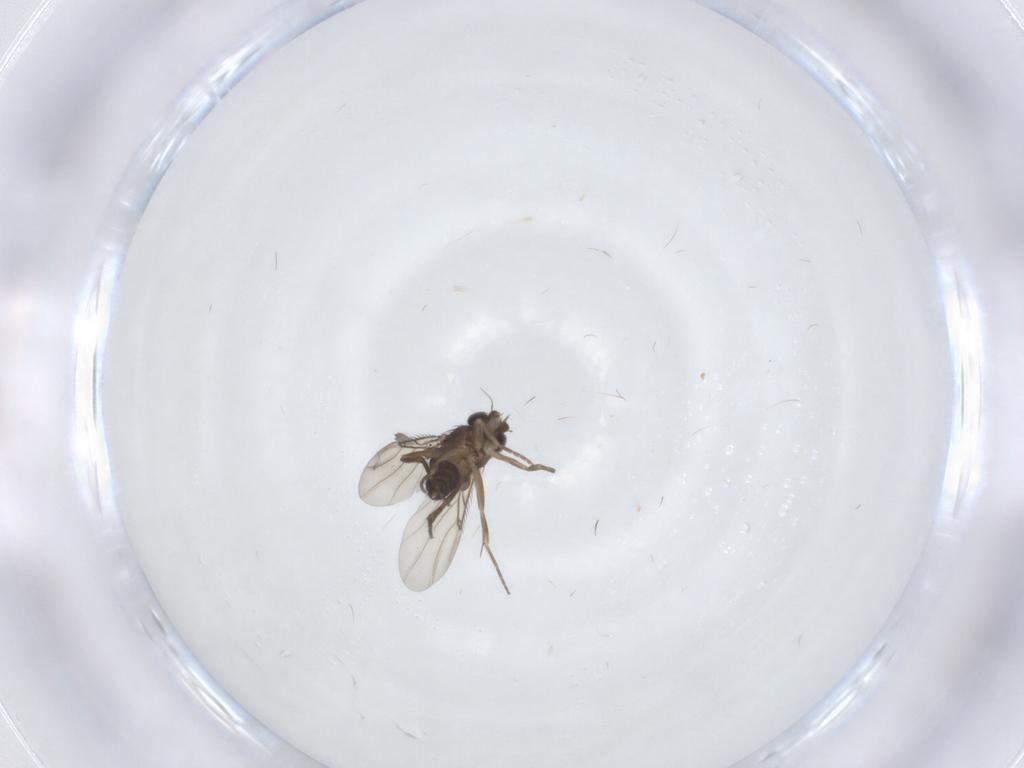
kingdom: Animalia
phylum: Arthropoda
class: Insecta
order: Diptera
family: Phoridae
